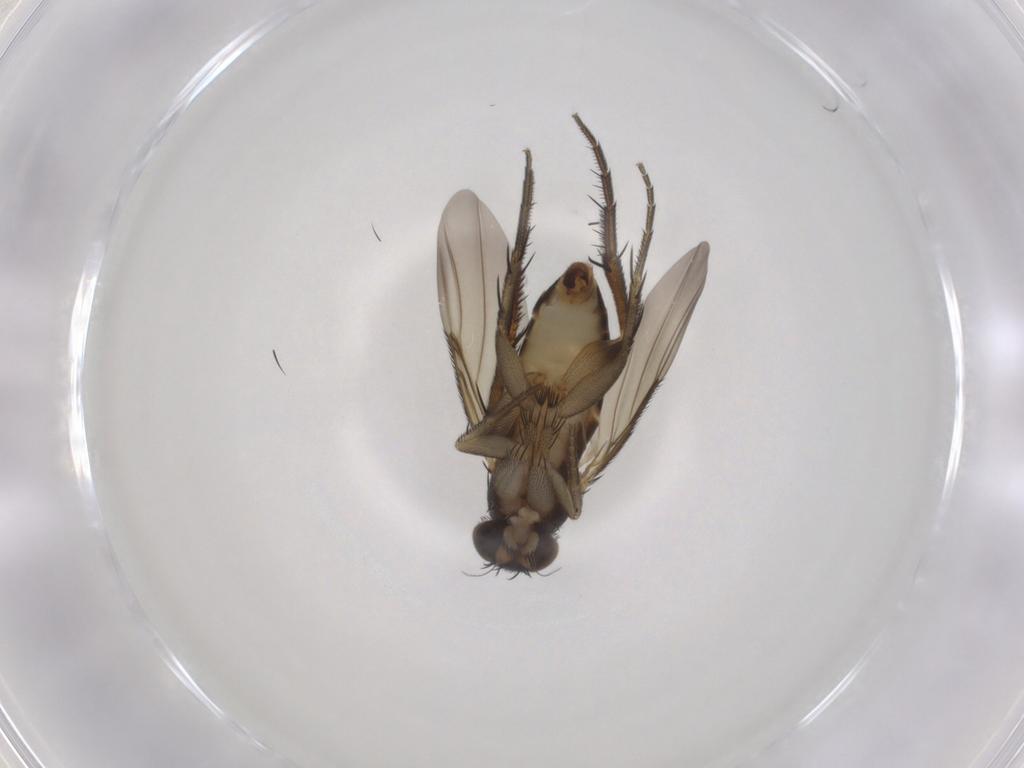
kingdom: Animalia
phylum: Arthropoda
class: Insecta
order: Diptera
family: Phoridae
